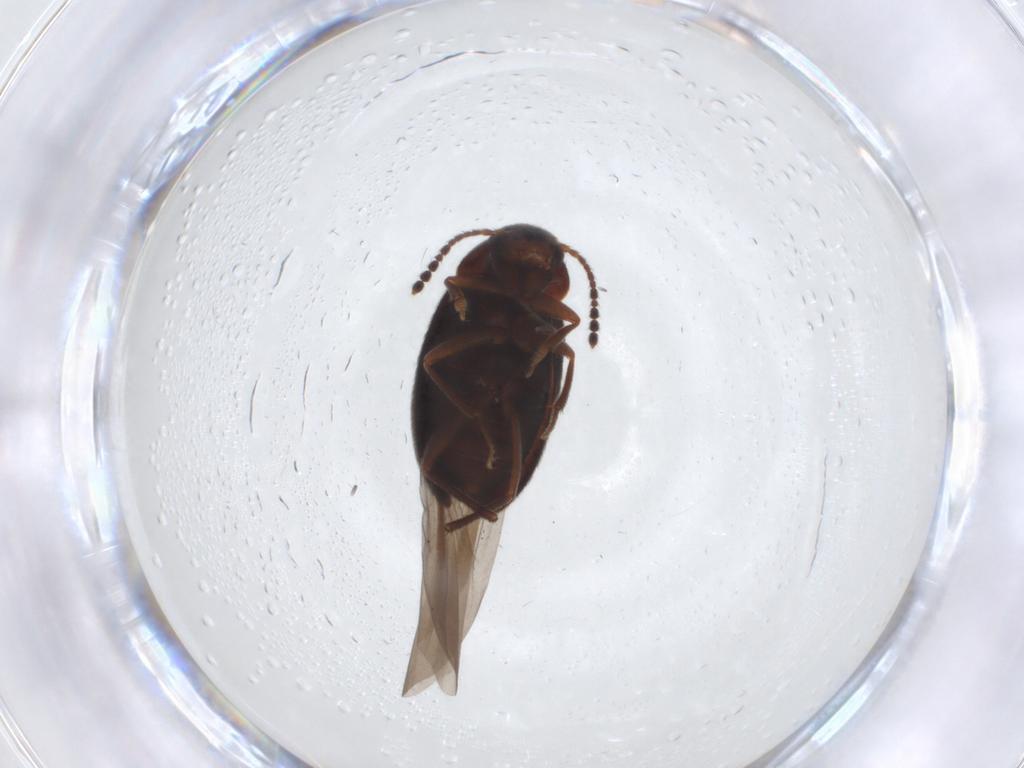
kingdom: Animalia
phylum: Arthropoda
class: Insecta
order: Coleoptera
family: Leiodidae
